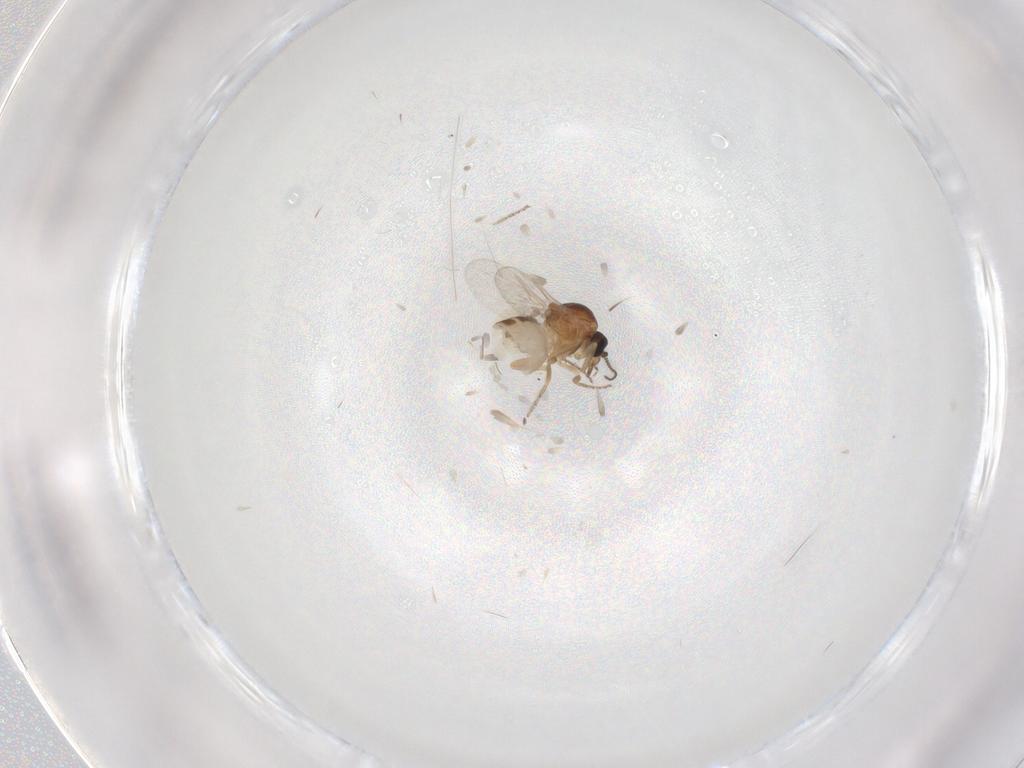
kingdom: Animalia
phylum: Arthropoda
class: Insecta
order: Diptera
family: Ceratopogonidae
